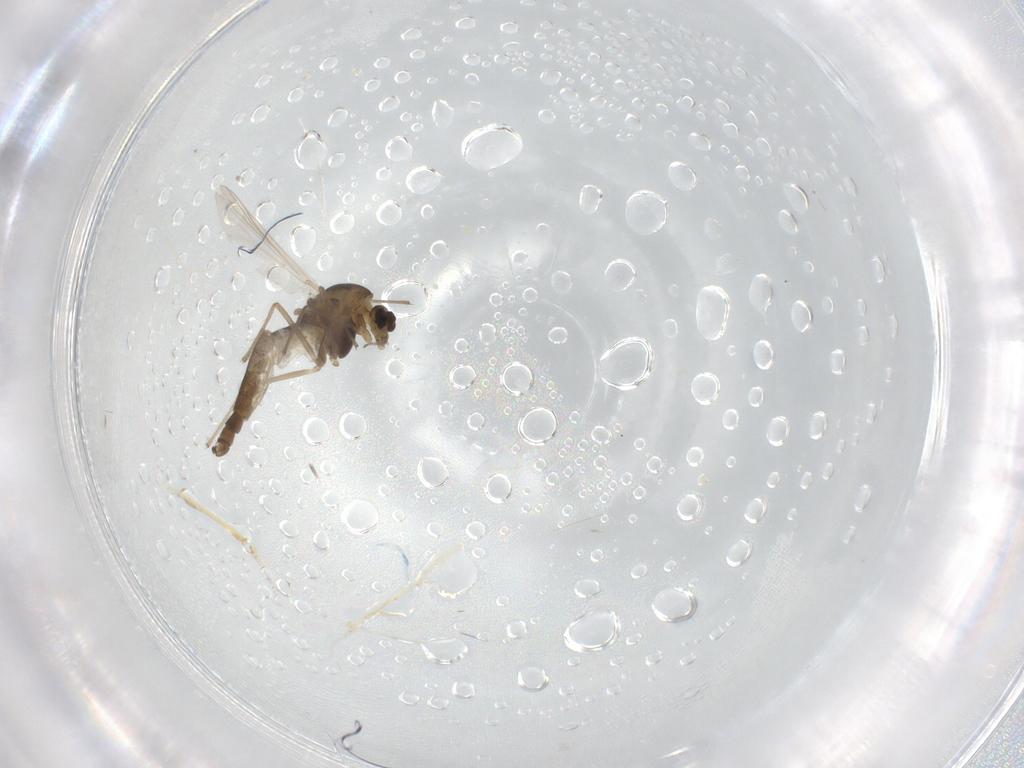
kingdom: Animalia
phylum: Arthropoda
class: Insecta
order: Diptera
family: Chironomidae
